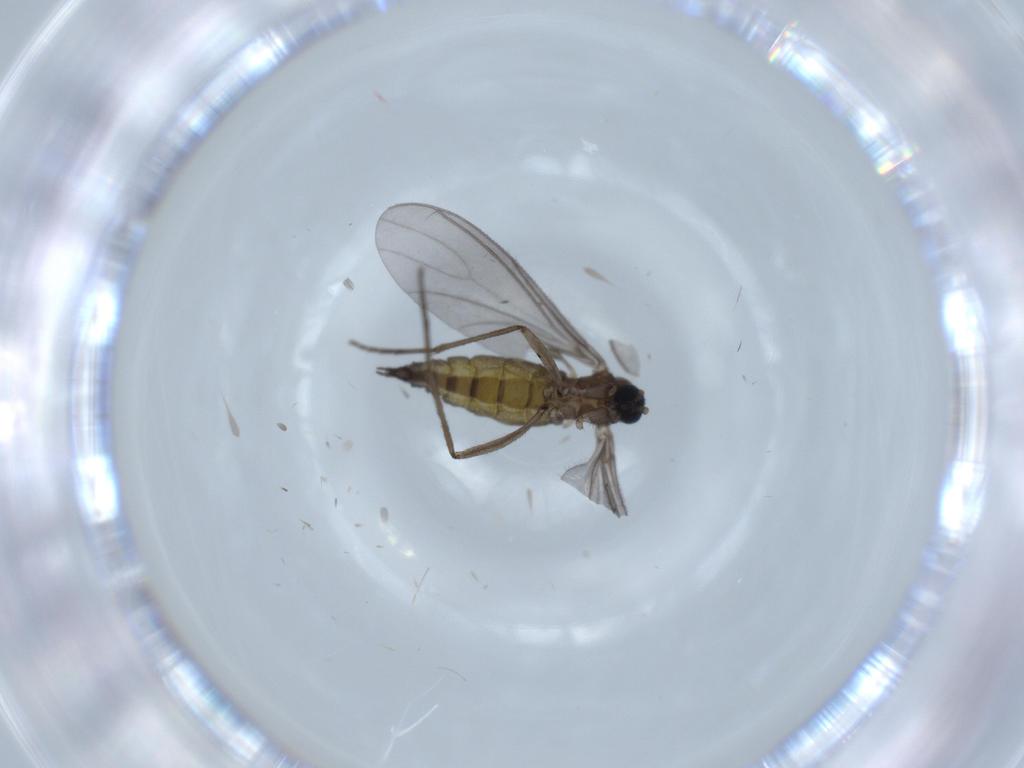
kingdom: Animalia
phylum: Arthropoda
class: Insecta
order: Diptera
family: Sciaridae
